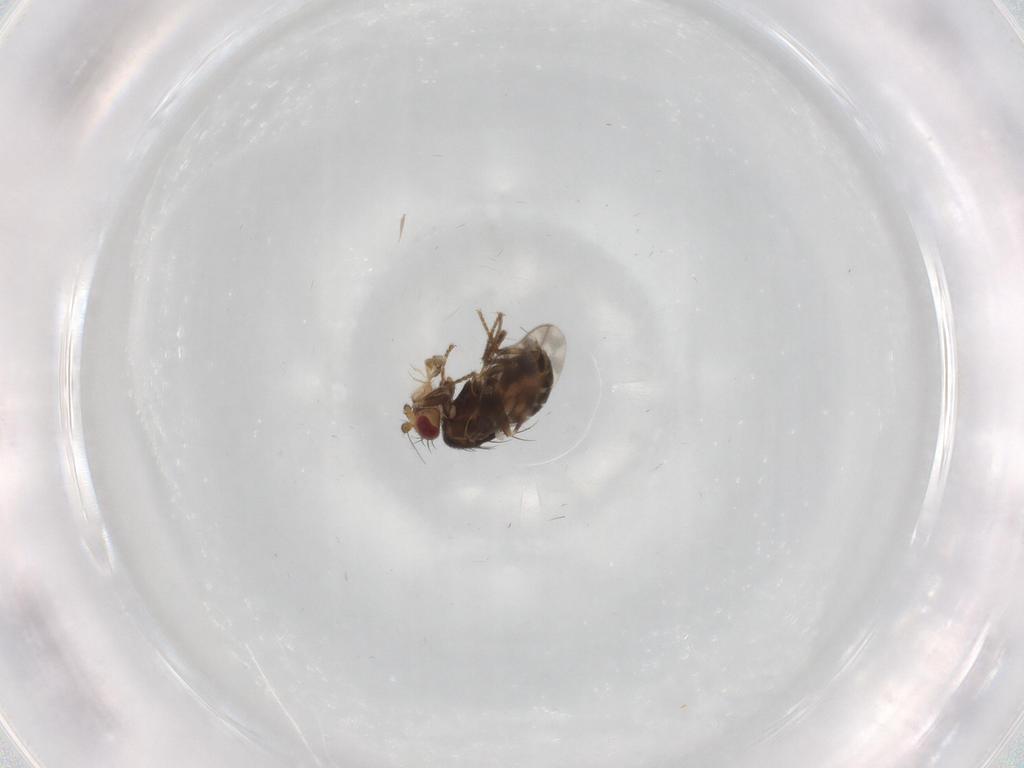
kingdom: Animalia
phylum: Arthropoda
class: Insecta
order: Diptera
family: Sphaeroceridae
